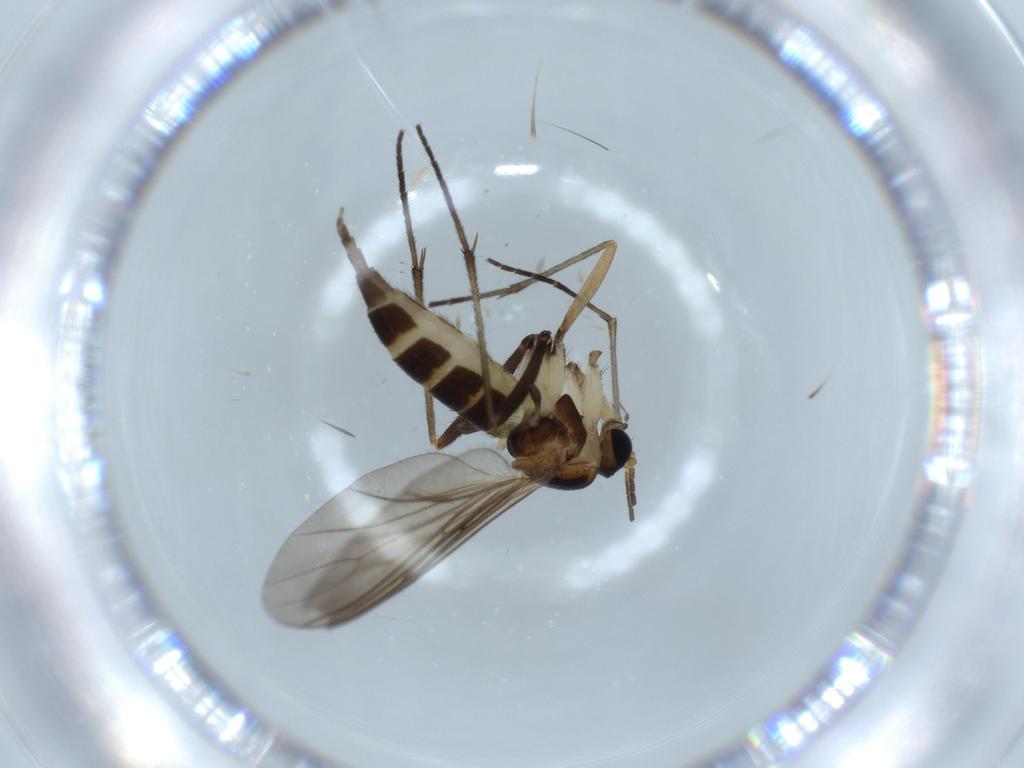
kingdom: Animalia
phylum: Arthropoda
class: Insecta
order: Diptera
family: Sciaridae
